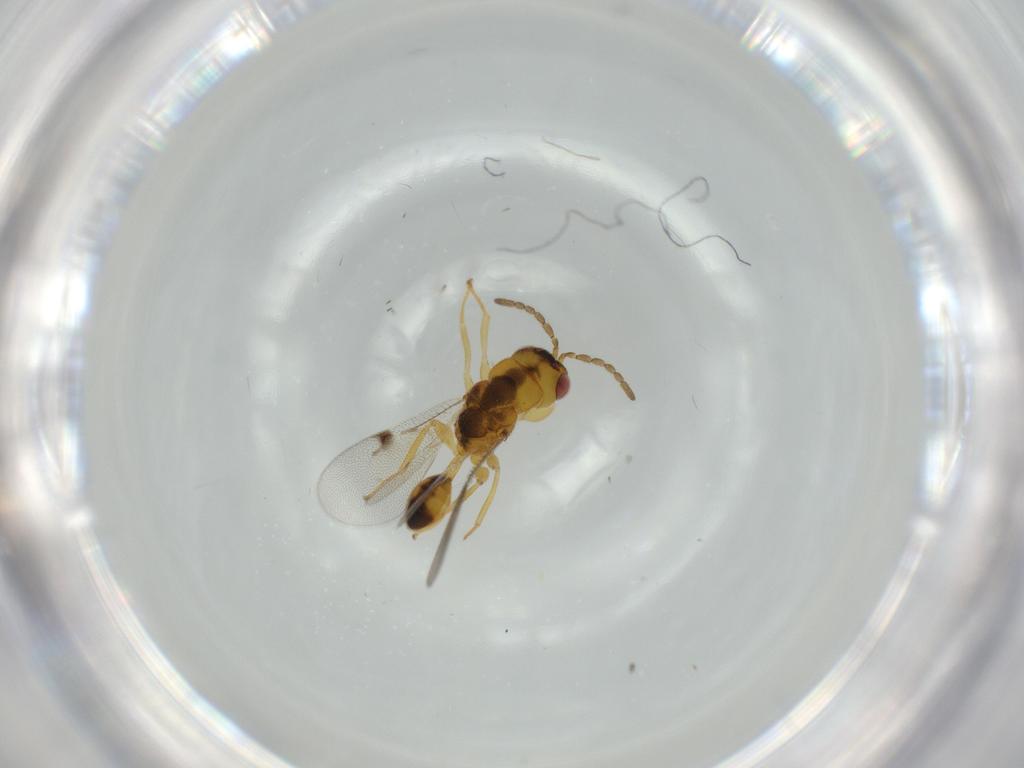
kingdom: Animalia
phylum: Arthropoda
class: Insecta
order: Hymenoptera
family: Eurytomidae
